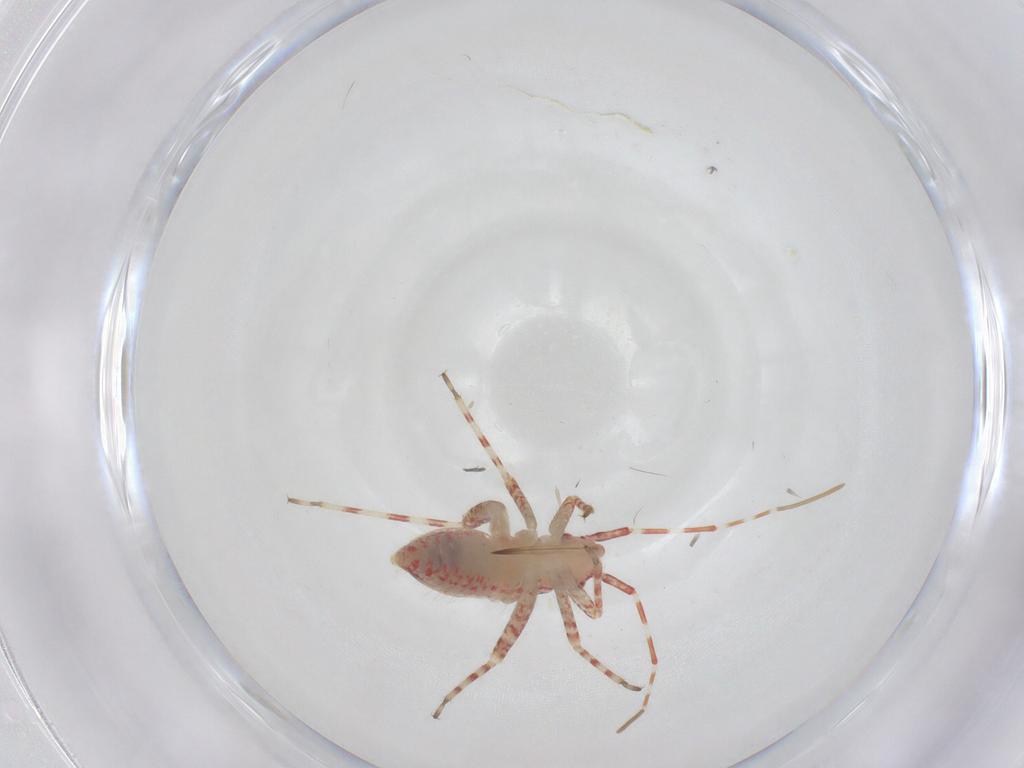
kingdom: Animalia
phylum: Arthropoda
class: Insecta
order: Hemiptera
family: Miridae
